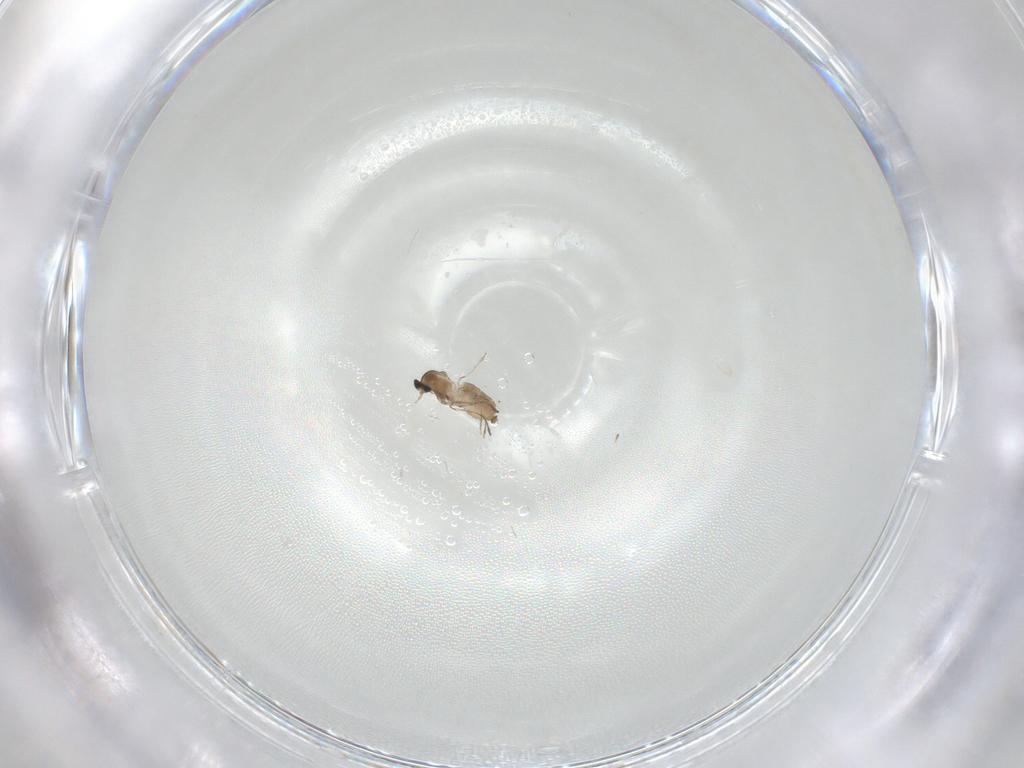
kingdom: Animalia
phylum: Arthropoda
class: Insecta
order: Diptera
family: Cecidomyiidae
